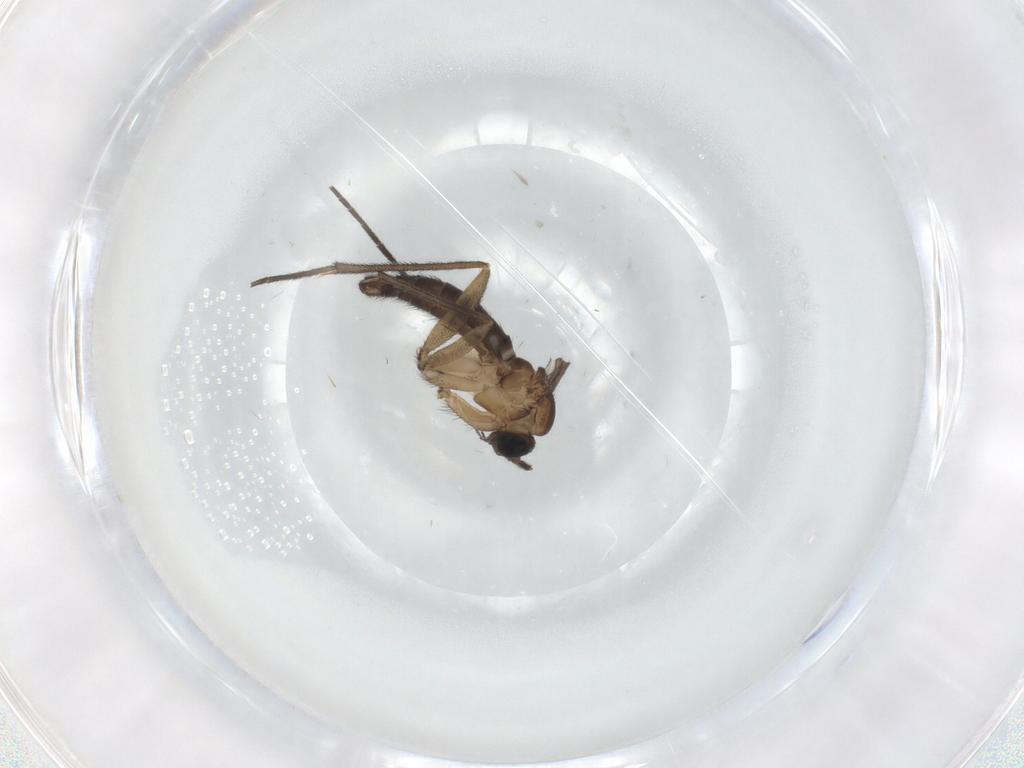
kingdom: Animalia
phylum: Arthropoda
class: Insecta
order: Diptera
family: Sciaridae
